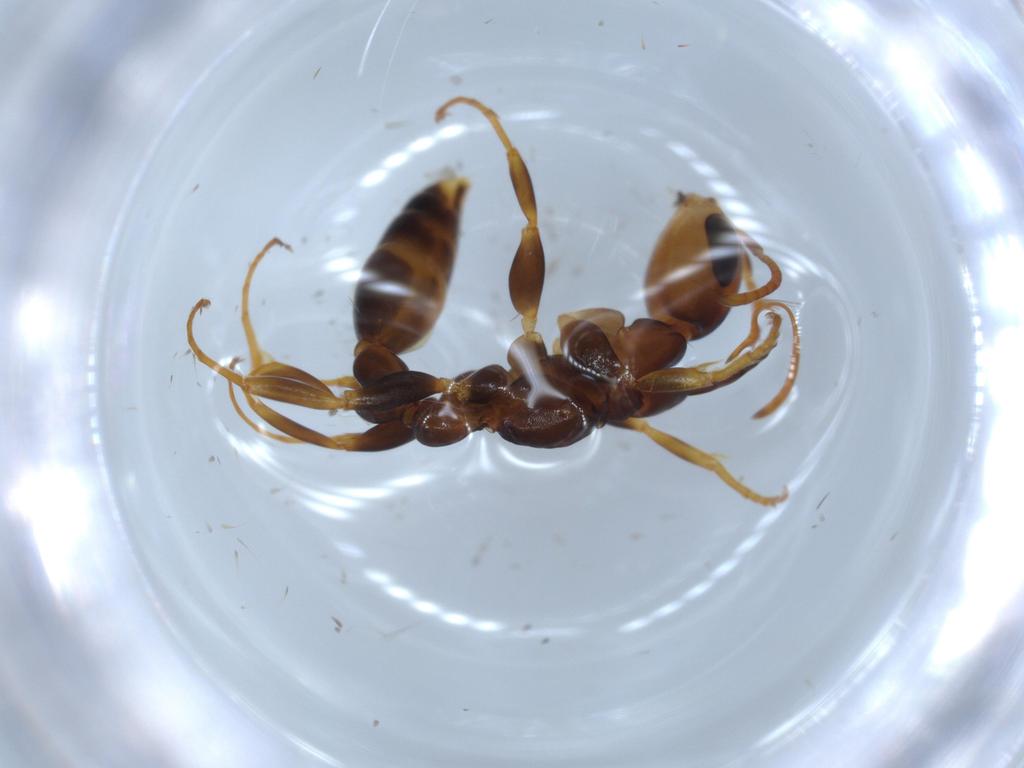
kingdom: Animalia
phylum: Arthropoda
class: Insecta
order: Hymenoptera
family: Formicidae
